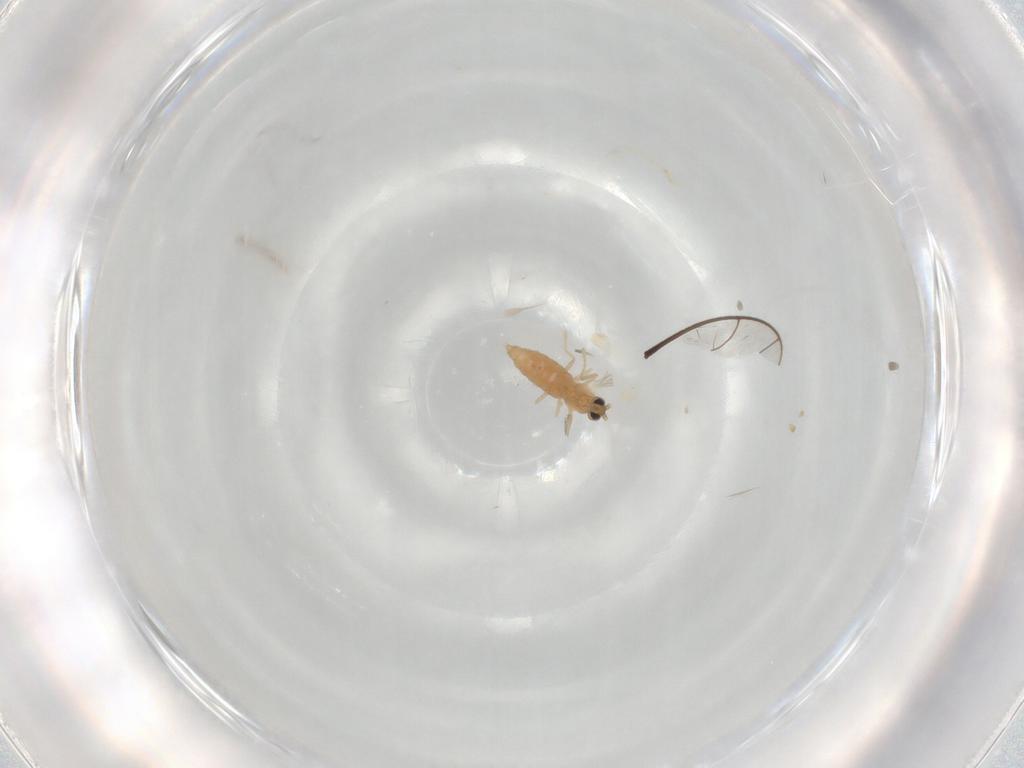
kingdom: Animalia
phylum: Arthropoda
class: Insecta
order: Diptera
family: Cecidomyiidae
